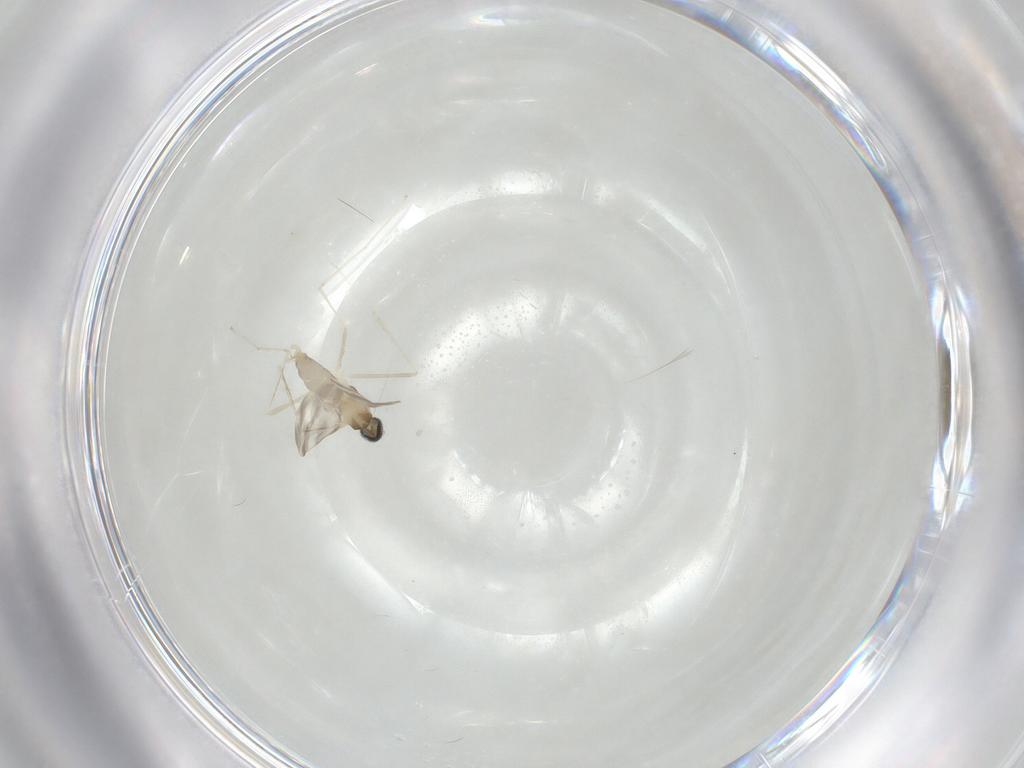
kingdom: Animalia
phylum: Arthropoda
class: Insecta
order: Diptera
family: Cecidomyiidae
